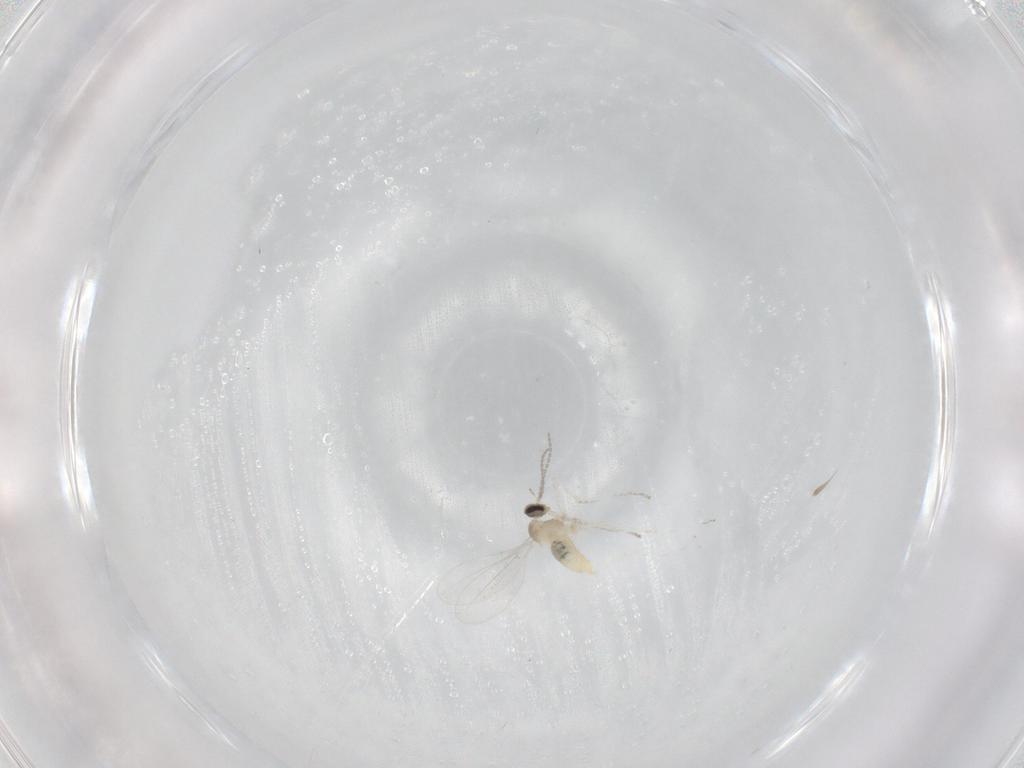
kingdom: Animalia
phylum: Arthropoda
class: Insecta
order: Diptera
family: Cecidomyiidae
